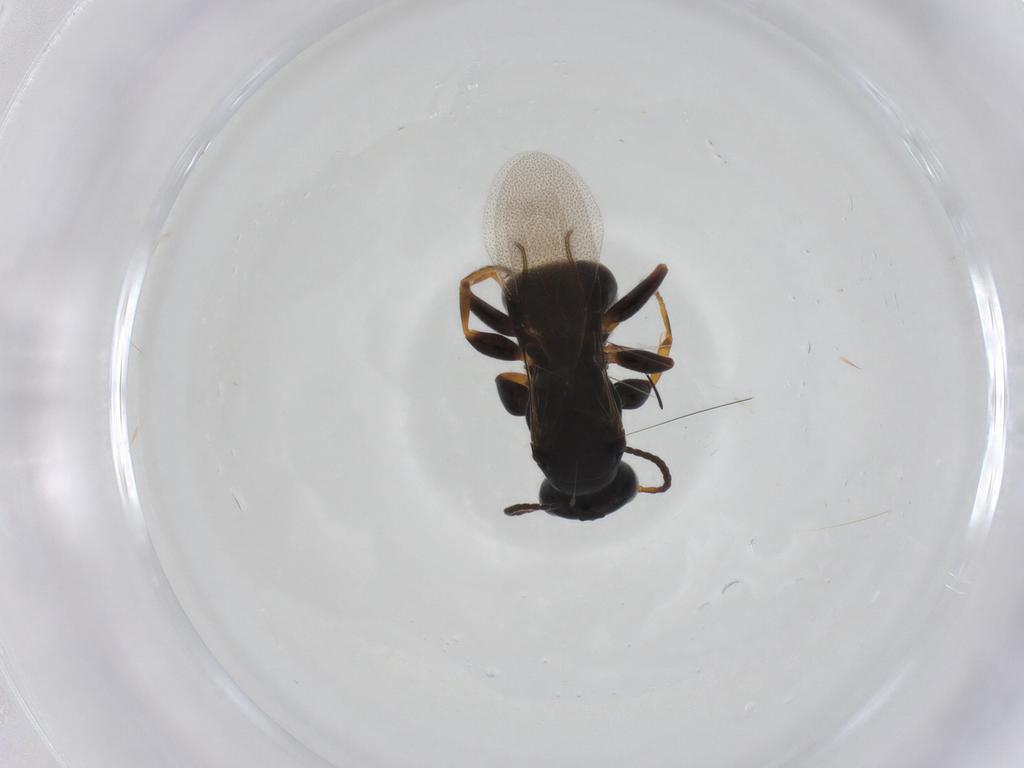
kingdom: Animalia
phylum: Arthropoda
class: Insecta
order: Hymenoptera
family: Bethylidae
